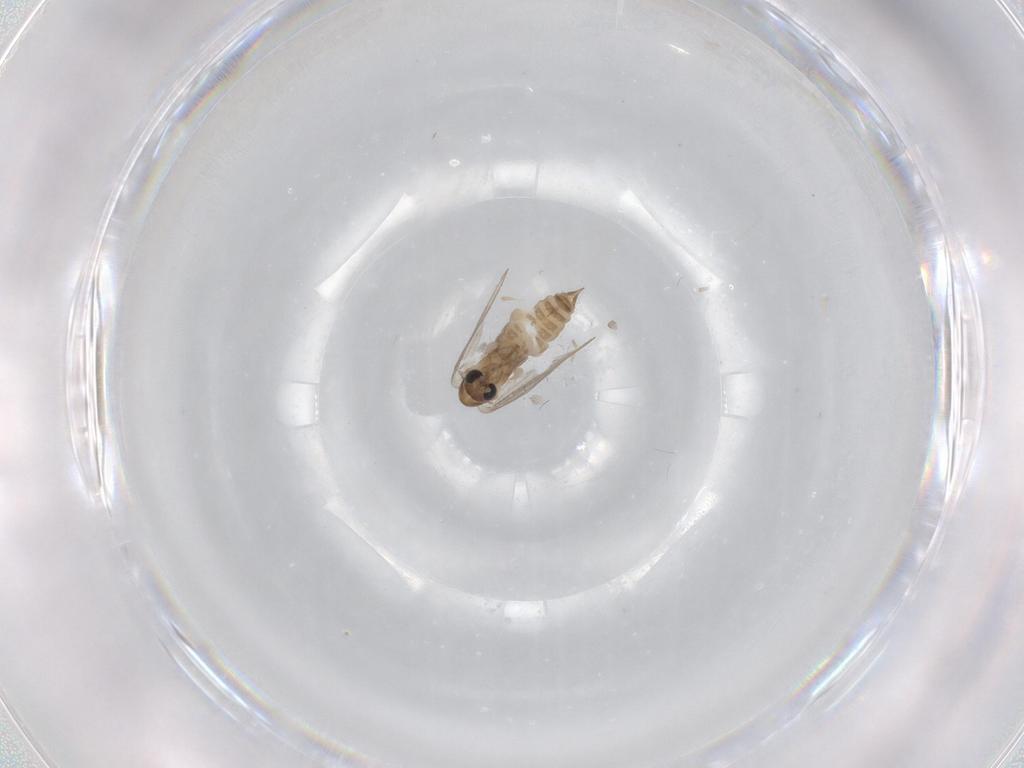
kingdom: Animalia
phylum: Arthropoda
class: Insecta
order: Diptera
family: Psychodidae
